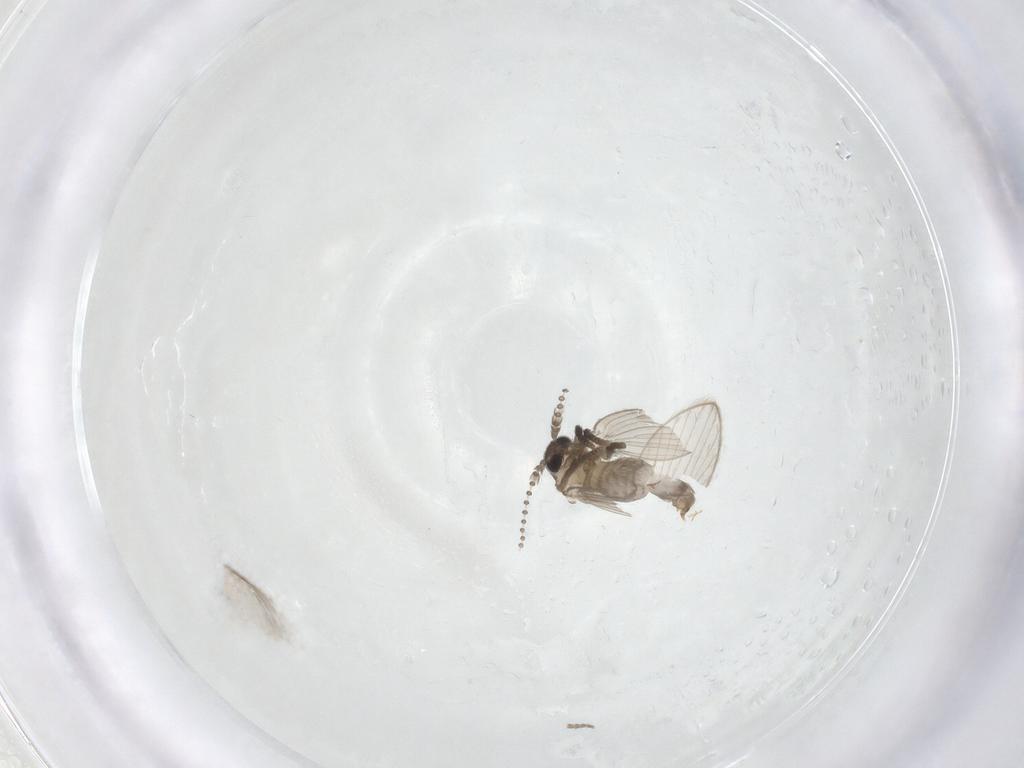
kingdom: Animalia
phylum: Arthropoda
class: Insecta
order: Diptera
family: Psychodidae
